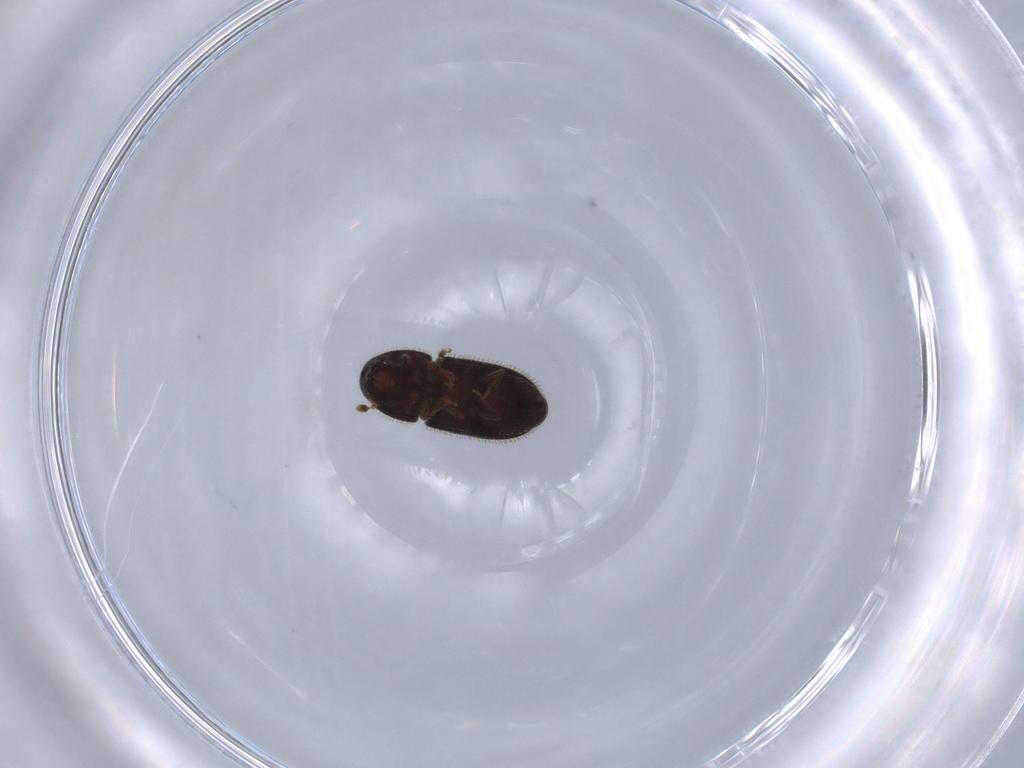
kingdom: Animalia
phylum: Arthropoda
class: Insecta
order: Coleoptera
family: Curculionidae
